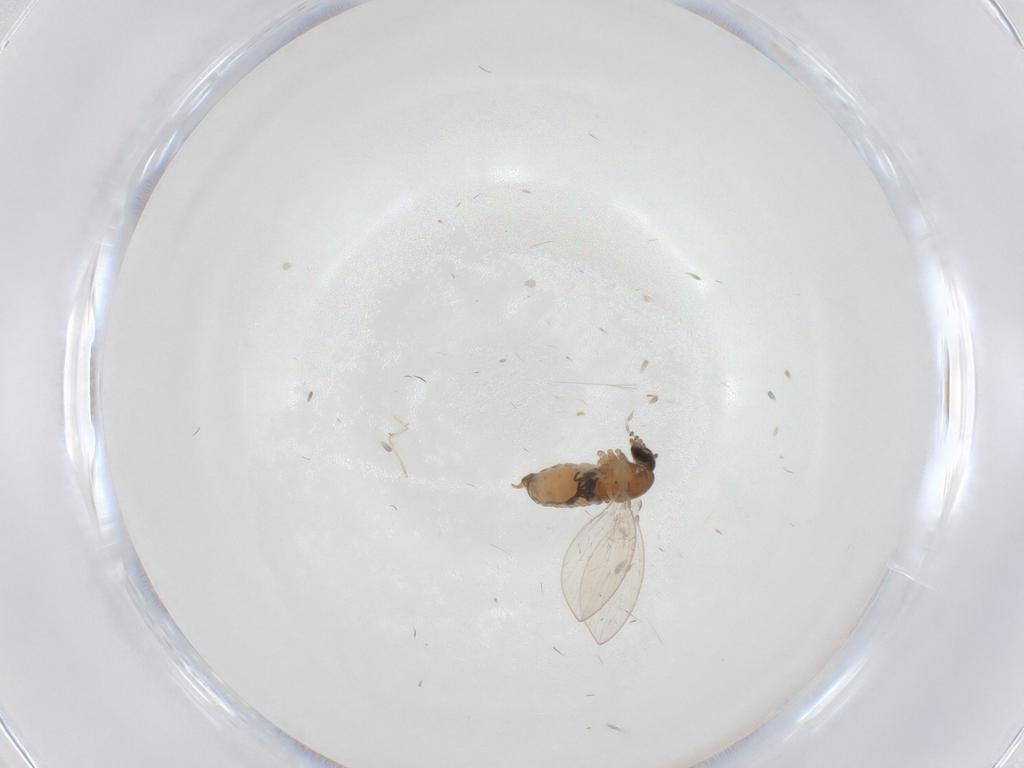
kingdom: Animalia
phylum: Arthropoda
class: Insecta
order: Diptera
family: Psychodidae
